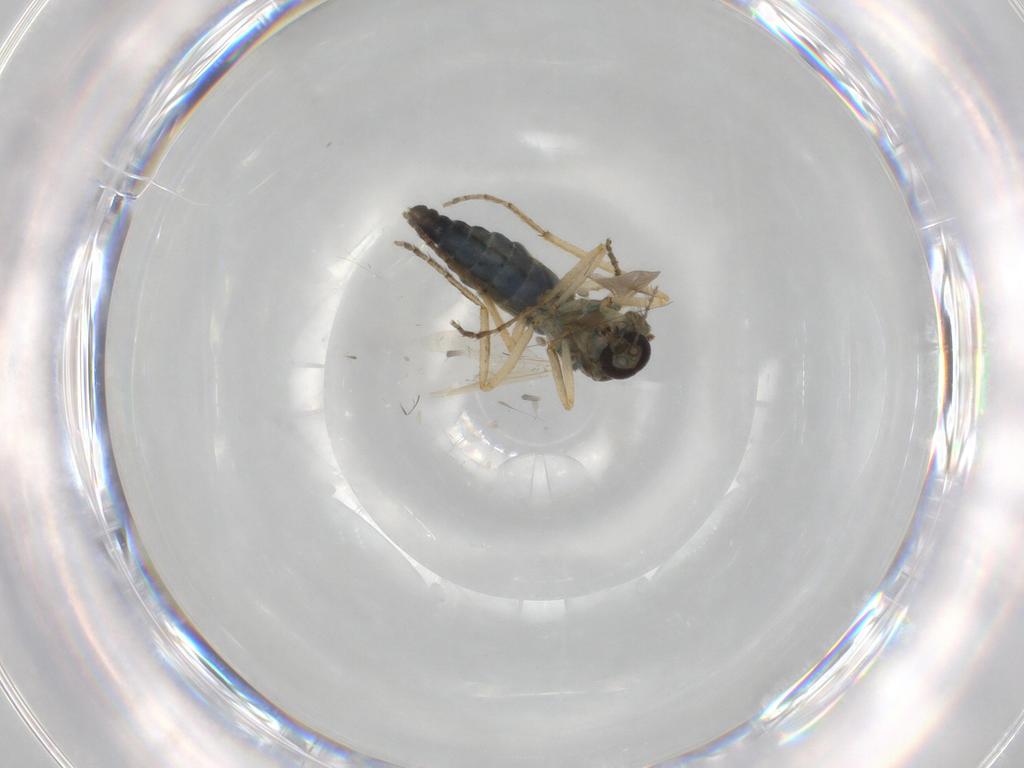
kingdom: Animalia
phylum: Arthropoda
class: Insecta
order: Diptera
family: Ceratopogonidae
